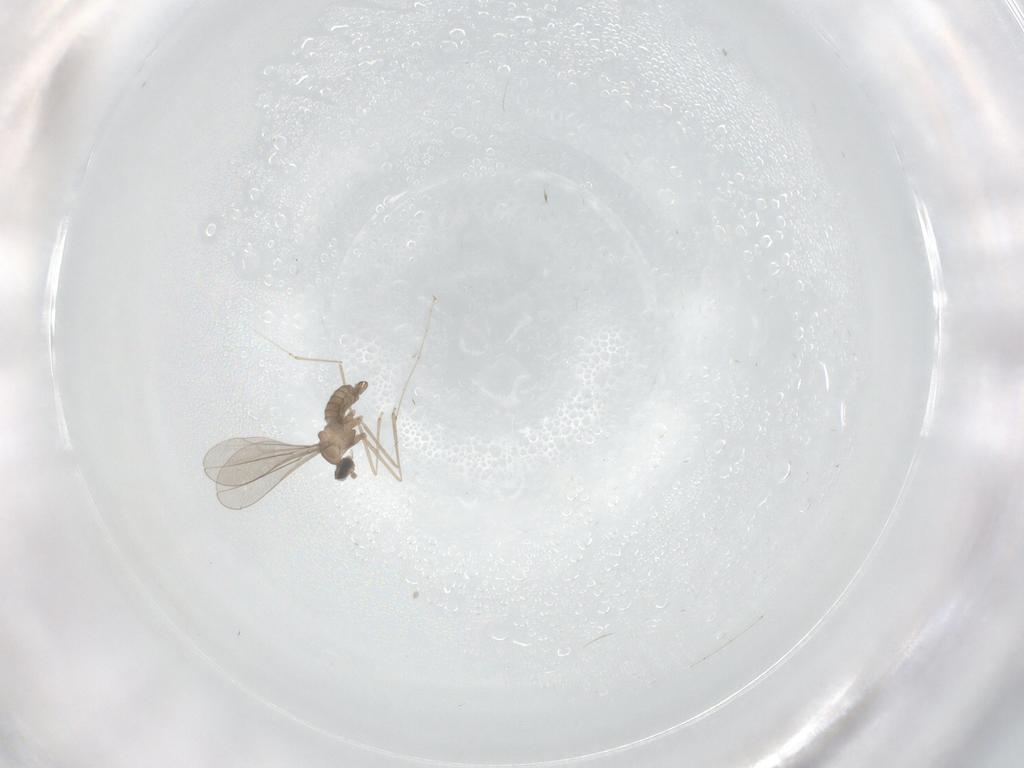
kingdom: Animalia
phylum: Arthropoda
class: Insecta
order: Diptera
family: Cecidomyiidae
